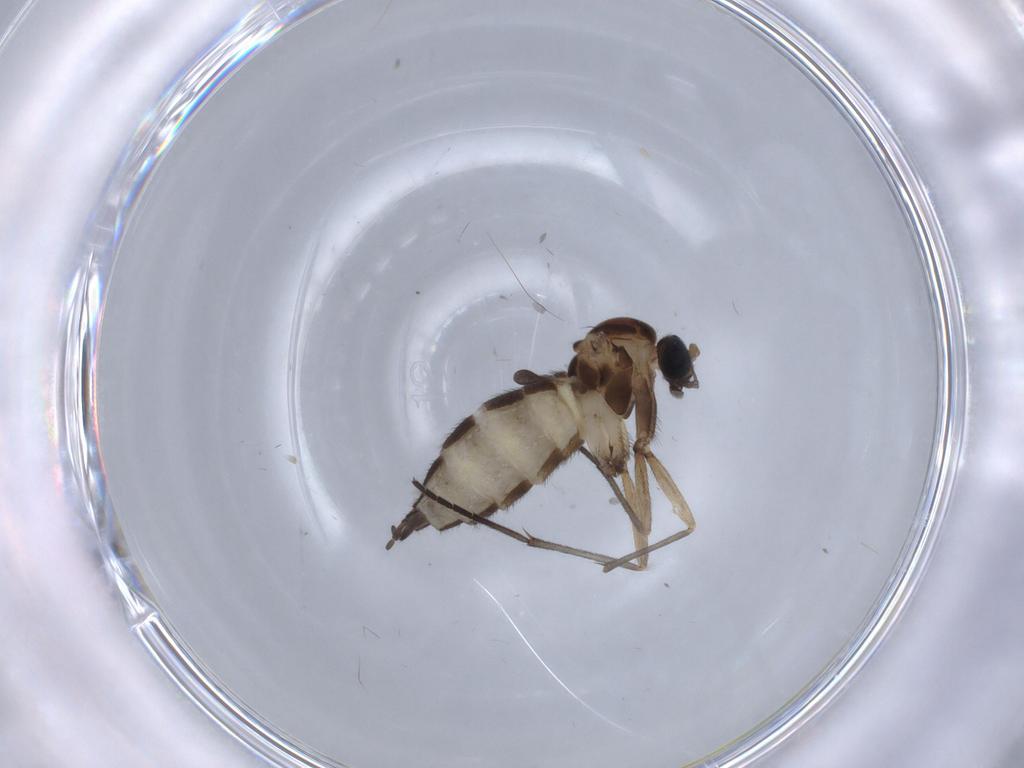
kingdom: Animalia
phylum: Arthropoda
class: Insecta
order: Diptera
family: Sciaridae
